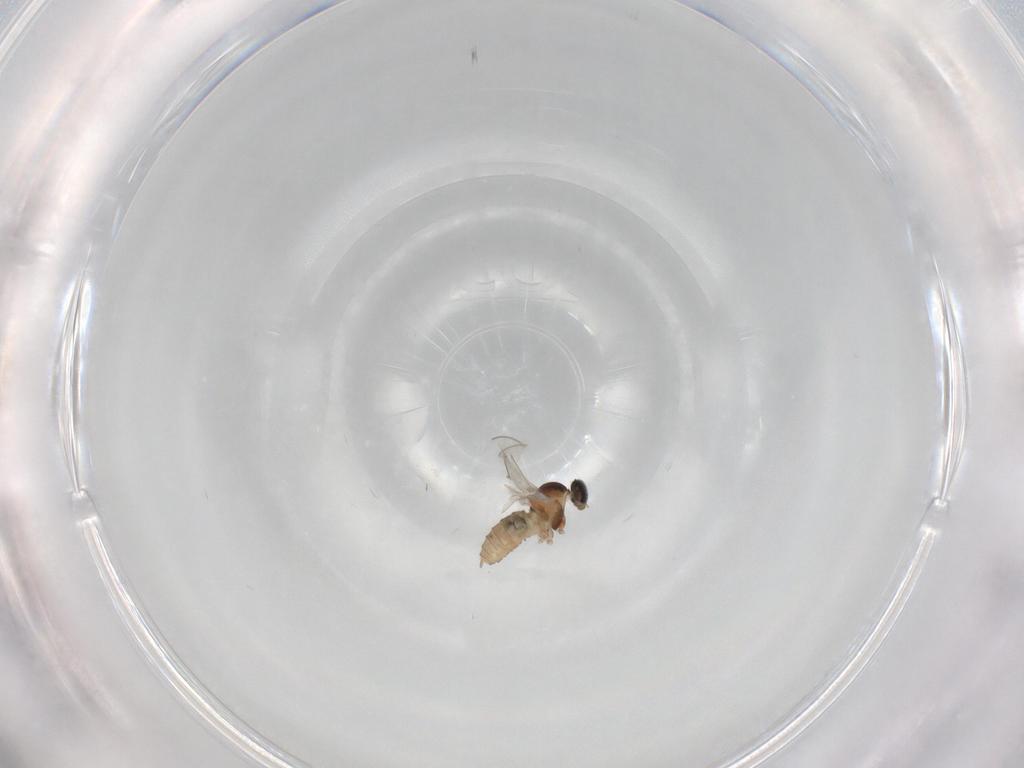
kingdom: Animalia
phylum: Arthropoda
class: Insecta
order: Diptera
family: Cecidomyiidae
